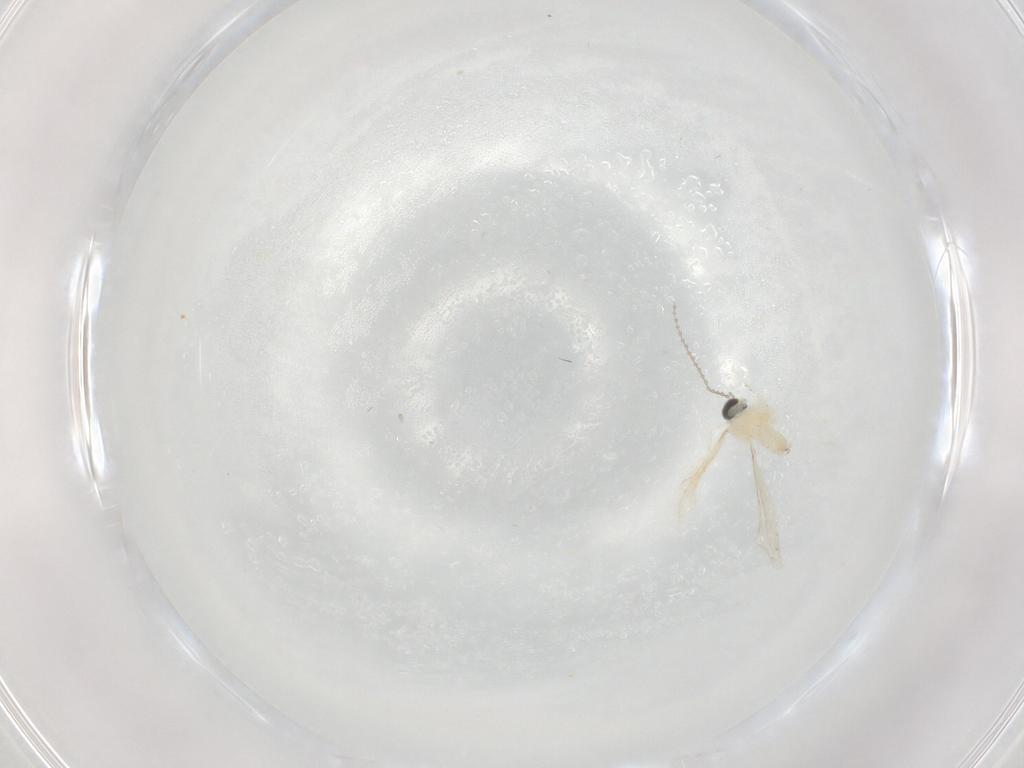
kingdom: Animalia
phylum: Arthropoda
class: Insecta
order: Diptera
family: Cecidomyiidae
